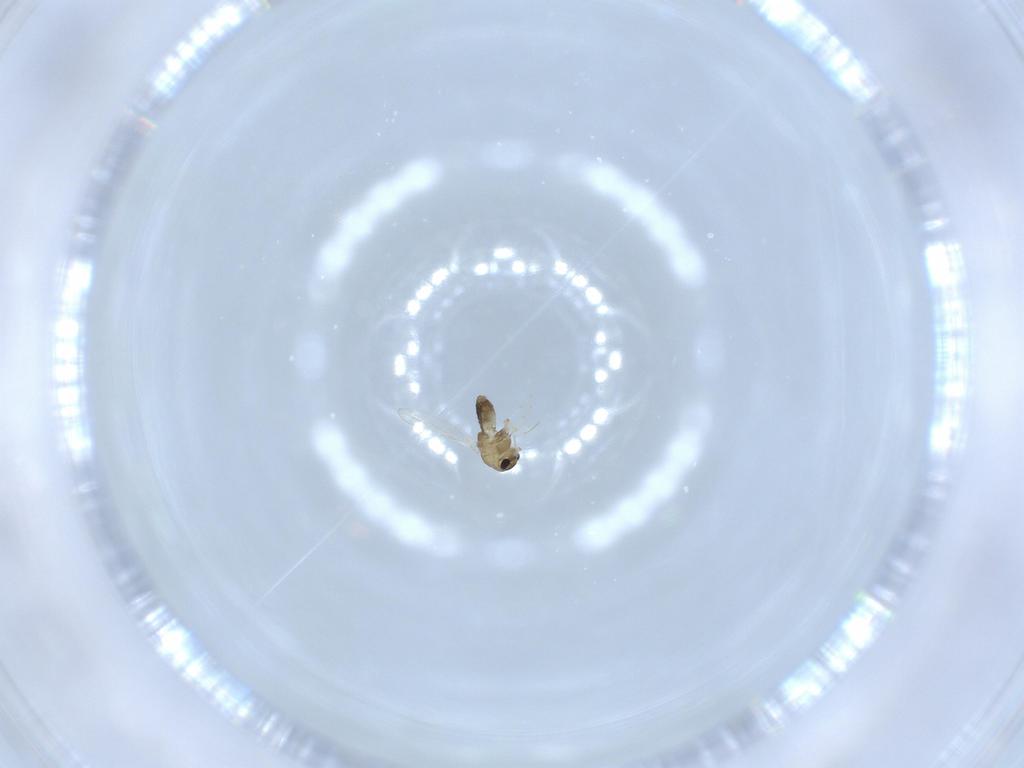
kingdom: Animalia
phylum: Arthropoda
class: Insecta
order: Diptera
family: Chironomidae
